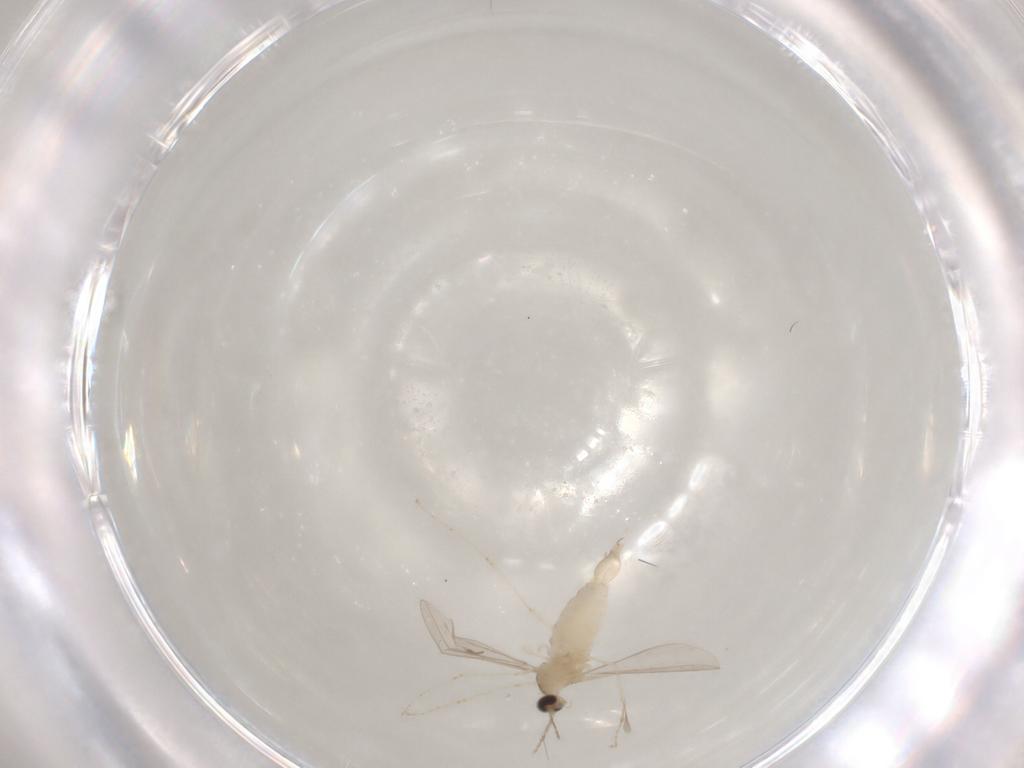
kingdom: Animalia
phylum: Arthropoda
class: Insecta
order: Diptera
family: Cecidomyiidae
